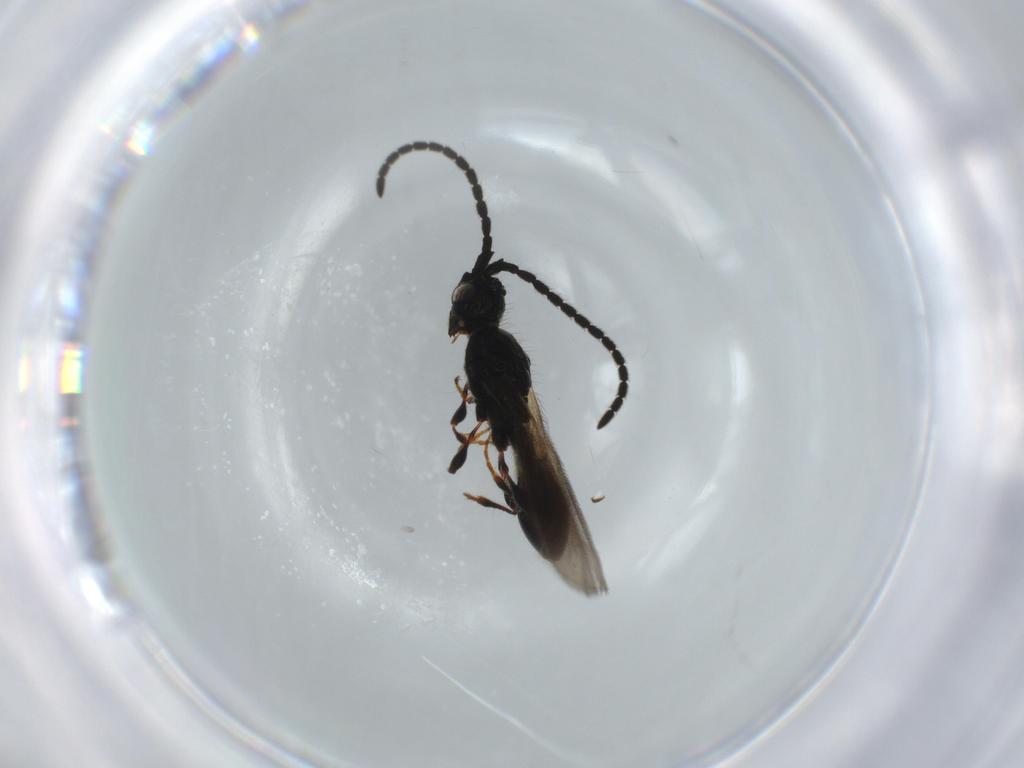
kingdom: Animalia
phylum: Arthropoda
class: Insecta
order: Hymenoptera
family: Diapriidae
